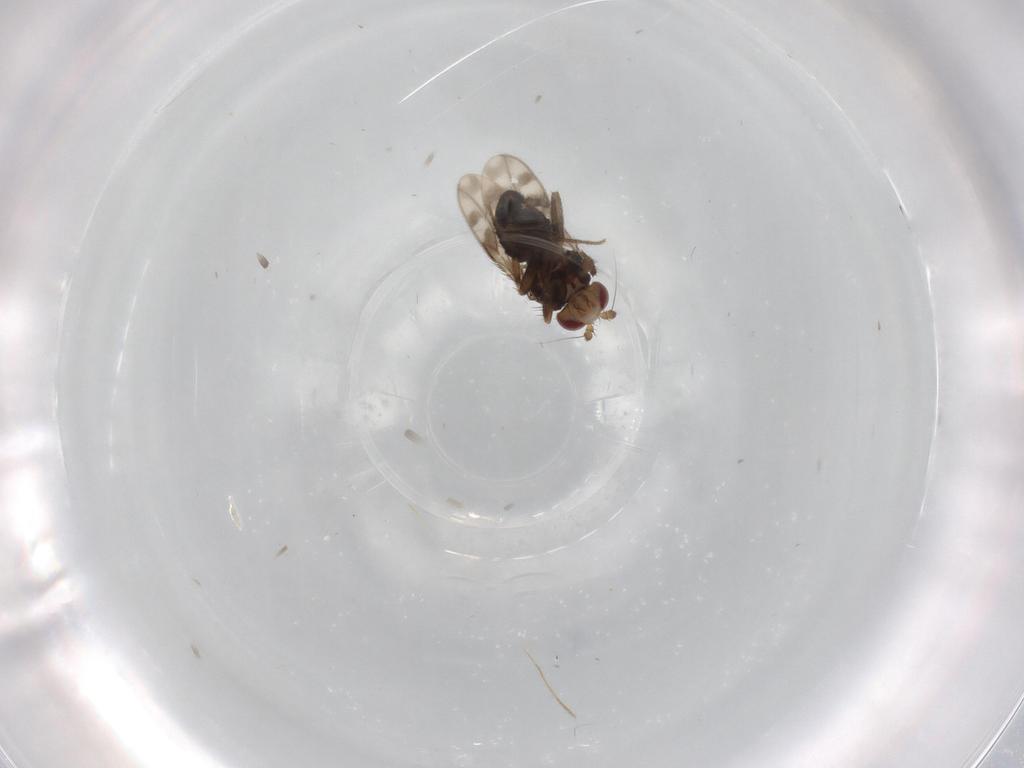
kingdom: Animalia
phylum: Arthropoda
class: Insecta
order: Diptera
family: Sphaeroceridae
